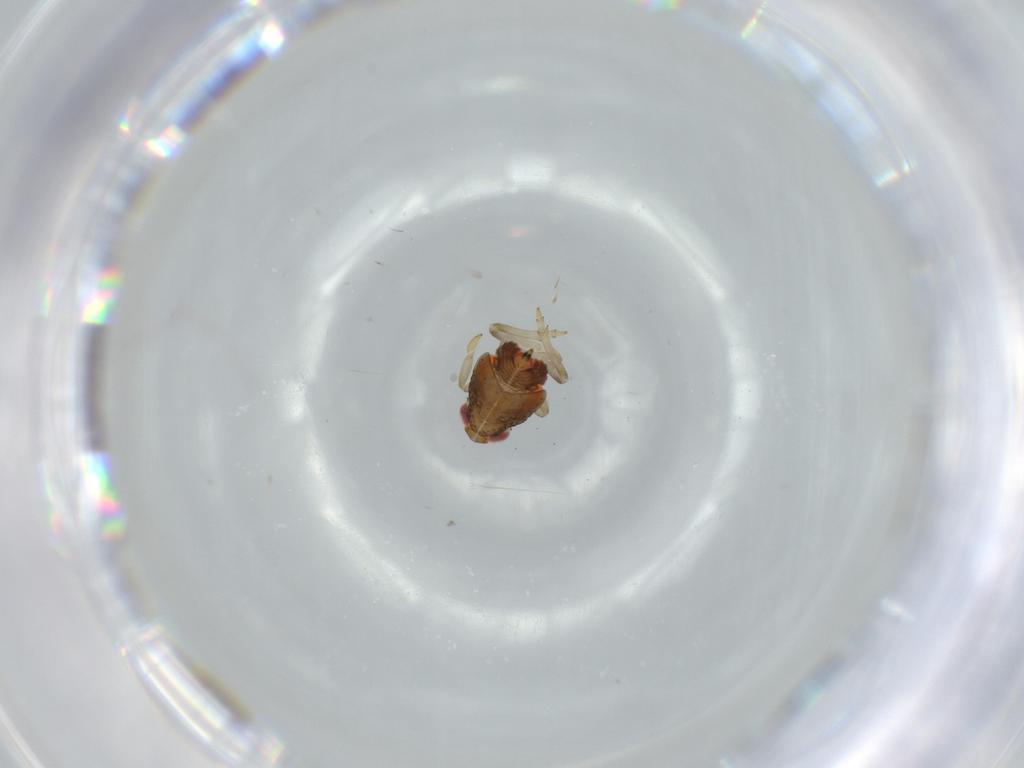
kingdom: Animalia
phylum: Arthropoda
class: Insecta
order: Hemiptera
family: Issidae
